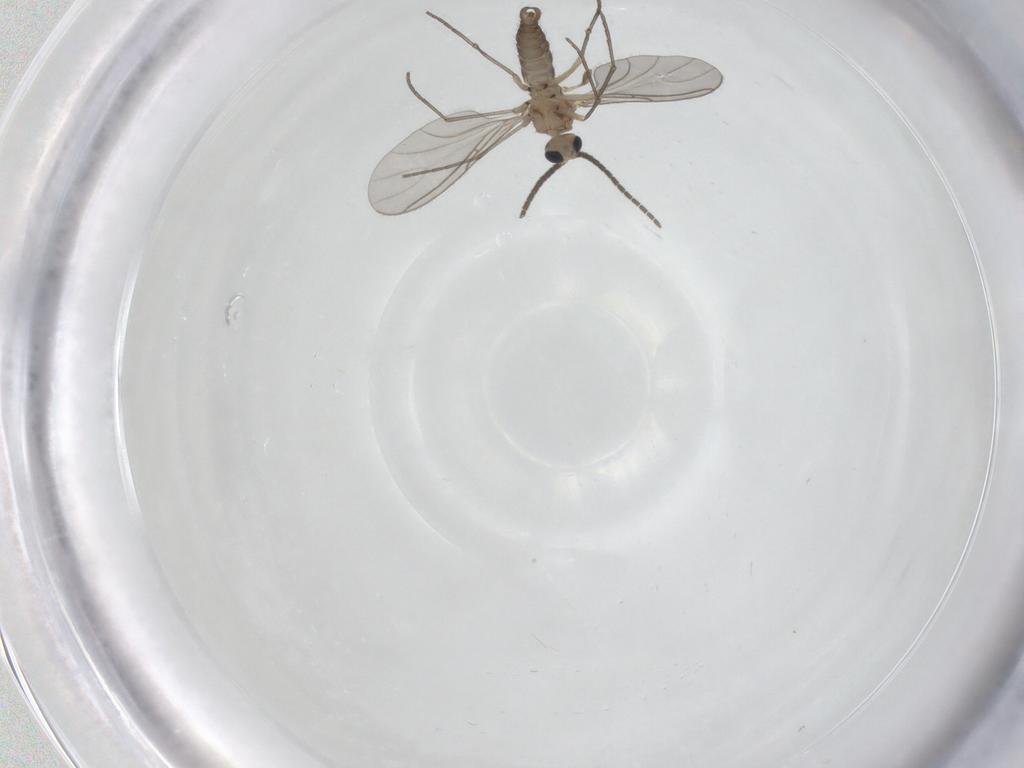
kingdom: Animalia
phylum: Arthropoda
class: Insecta
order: Diptera
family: Sciaridae
